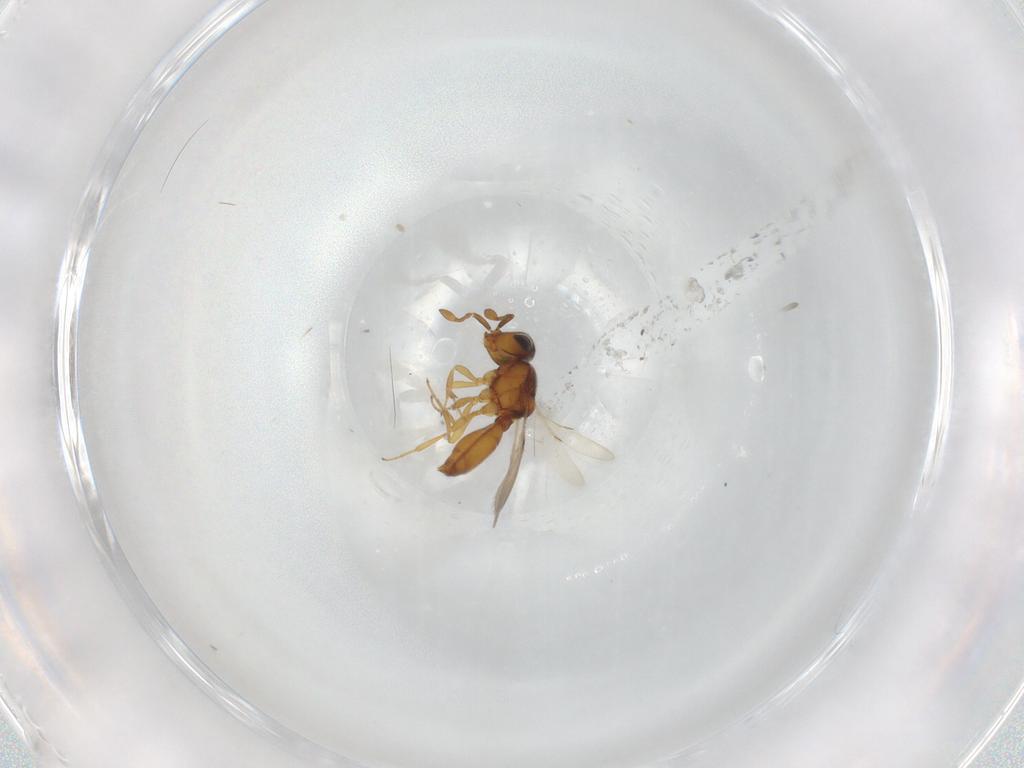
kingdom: Animalia
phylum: Arthropoda
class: Insecta
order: Hymenoptera
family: Scelionidae
